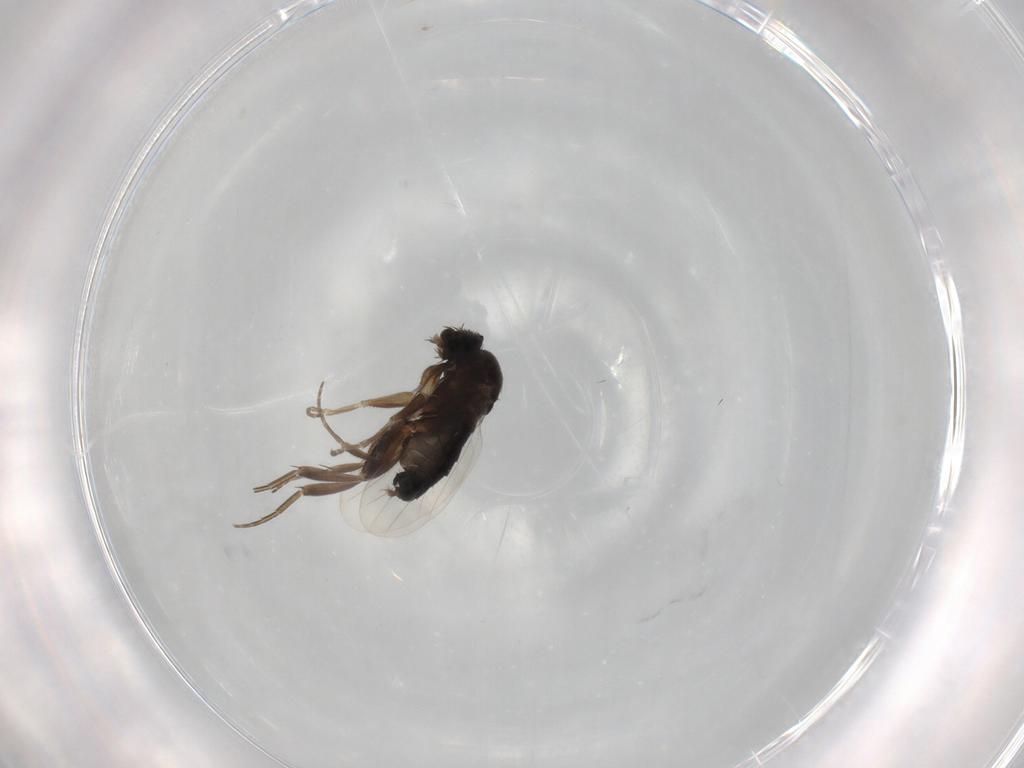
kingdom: Animalia
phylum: Arthropoda
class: Insecta
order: Diptera
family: Phoridae
